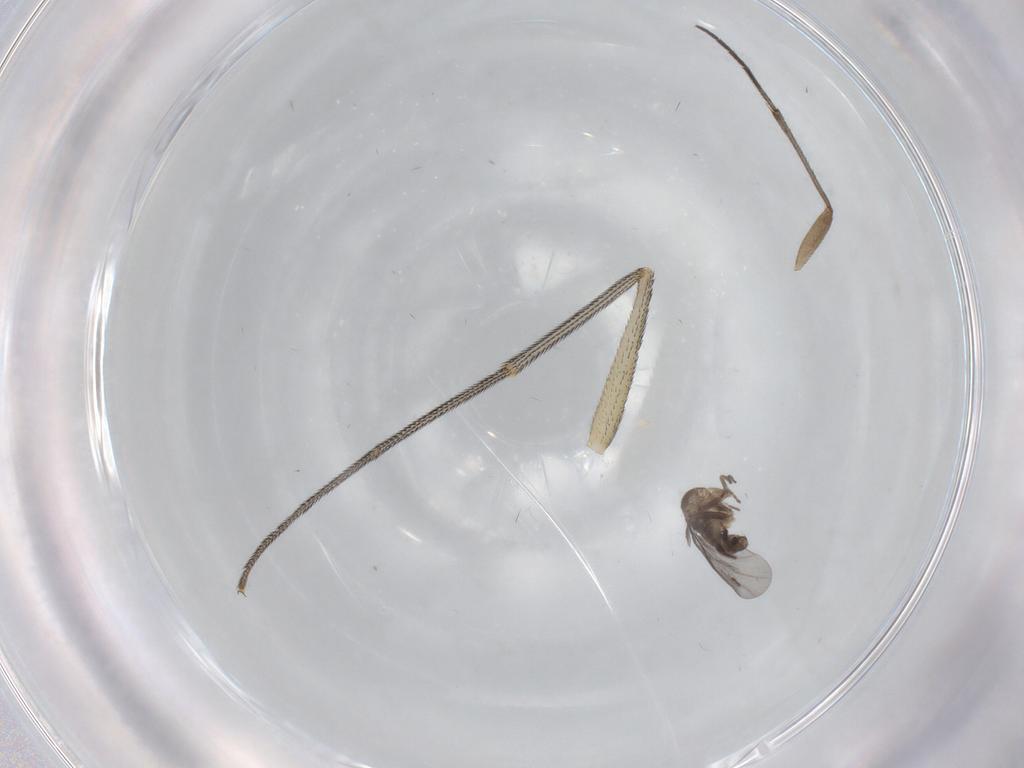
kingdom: Animalia
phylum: Arthropoda
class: Insecta
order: Diptera
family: Phoridae
